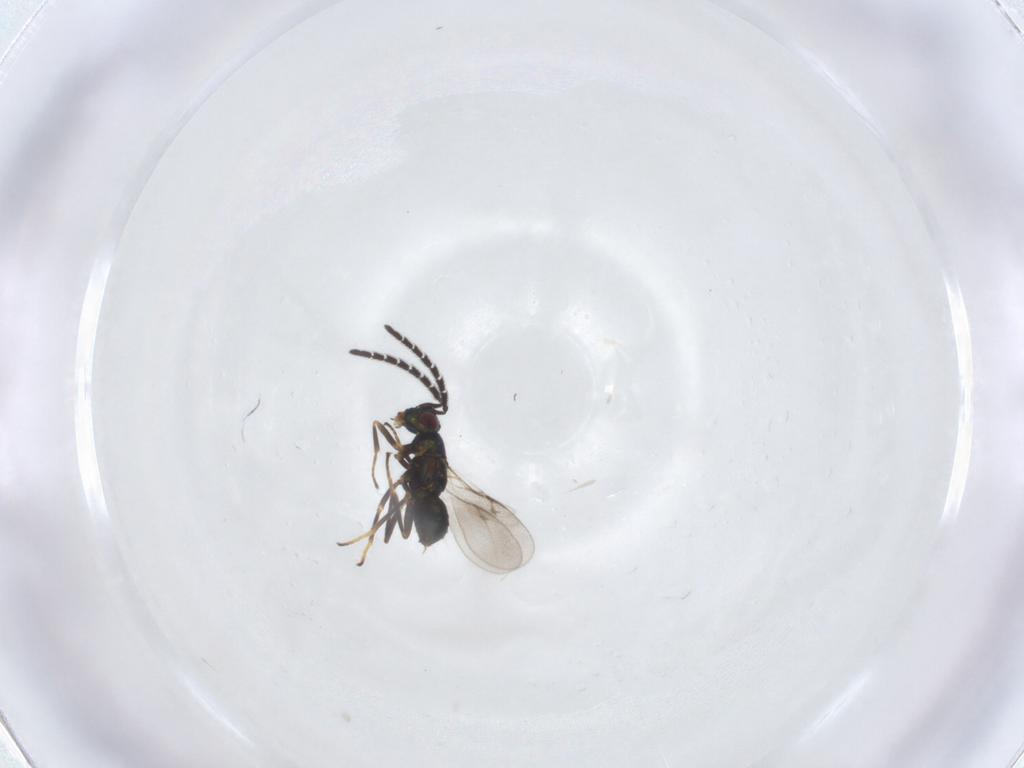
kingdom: Animalia
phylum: Arthropoda
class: Insecta
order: Hymenoptera
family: Encyrtidae
